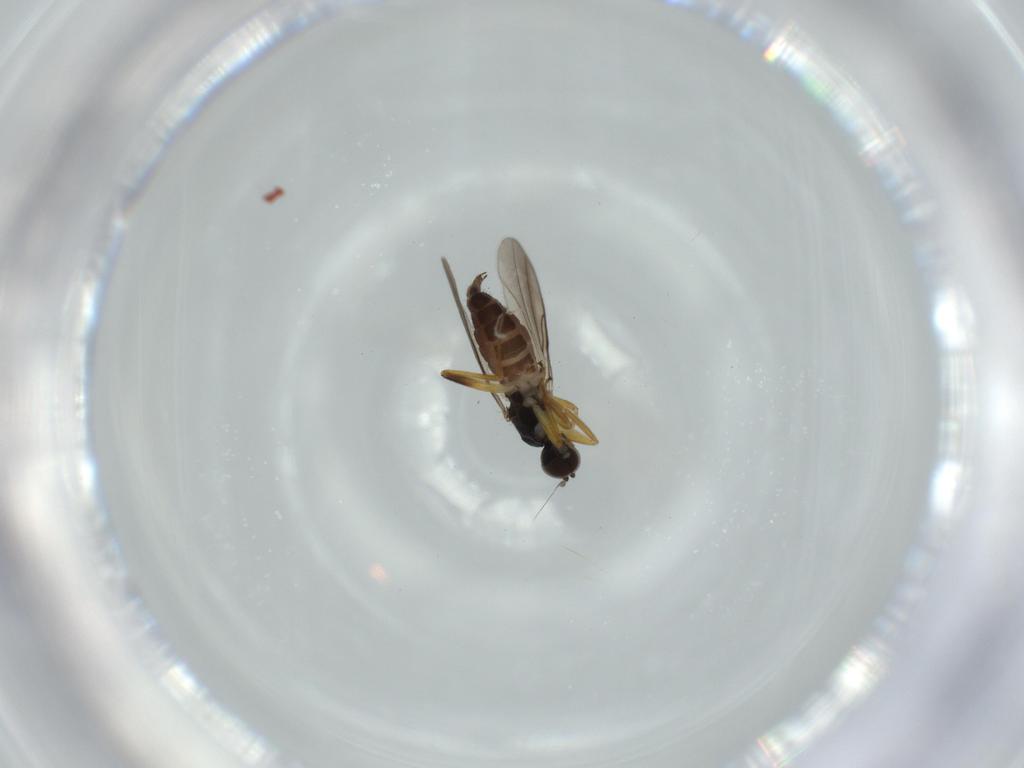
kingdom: Animalia
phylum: Arthropoda
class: Insecta
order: Diptera
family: Hybotidae
